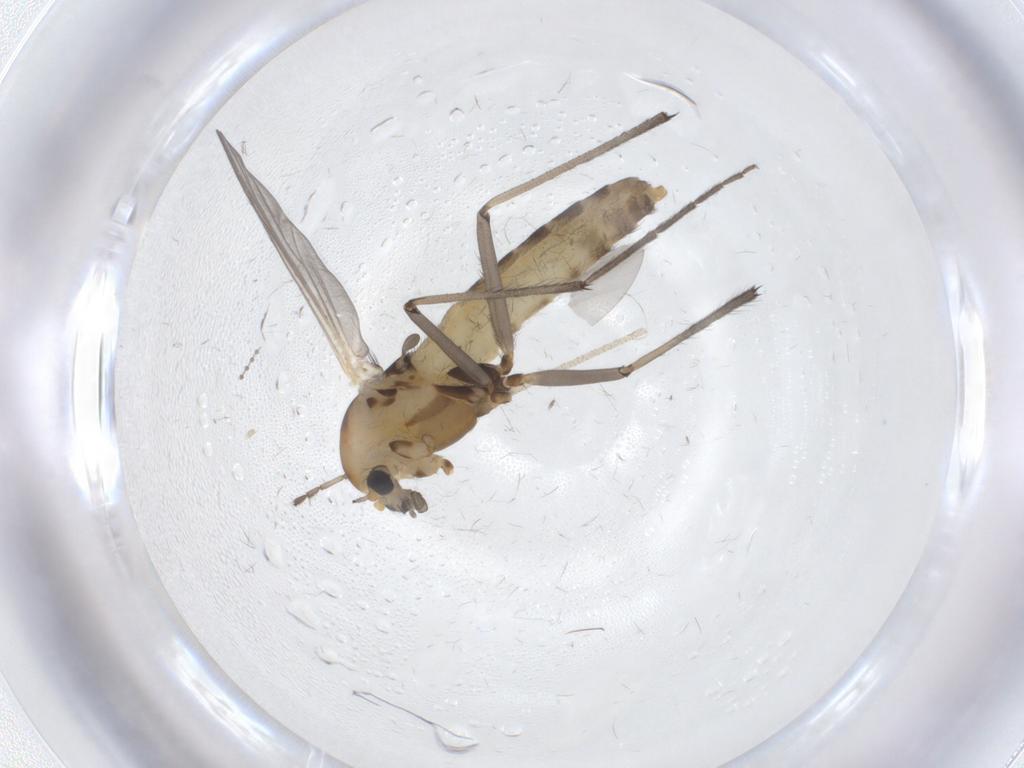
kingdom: Animalia
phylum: Arthropoda
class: Insecta
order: Diptera
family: Chironomidae
